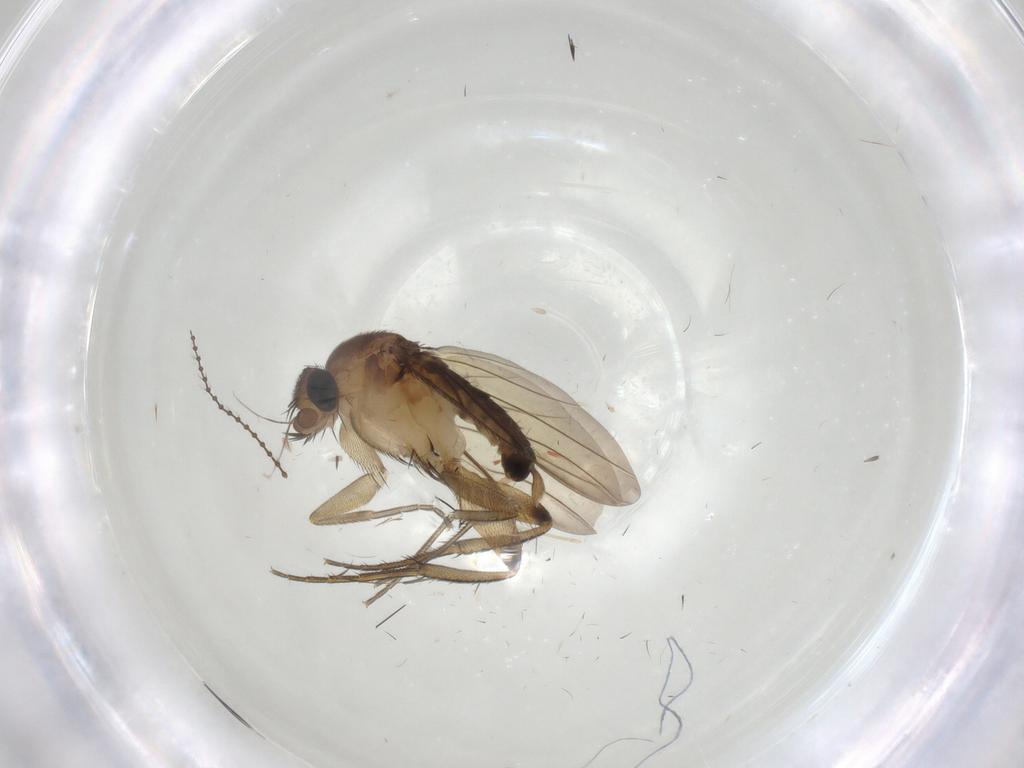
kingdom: Animalia
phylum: Arthropoda
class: Insecta
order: Diptera
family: Phoridae
